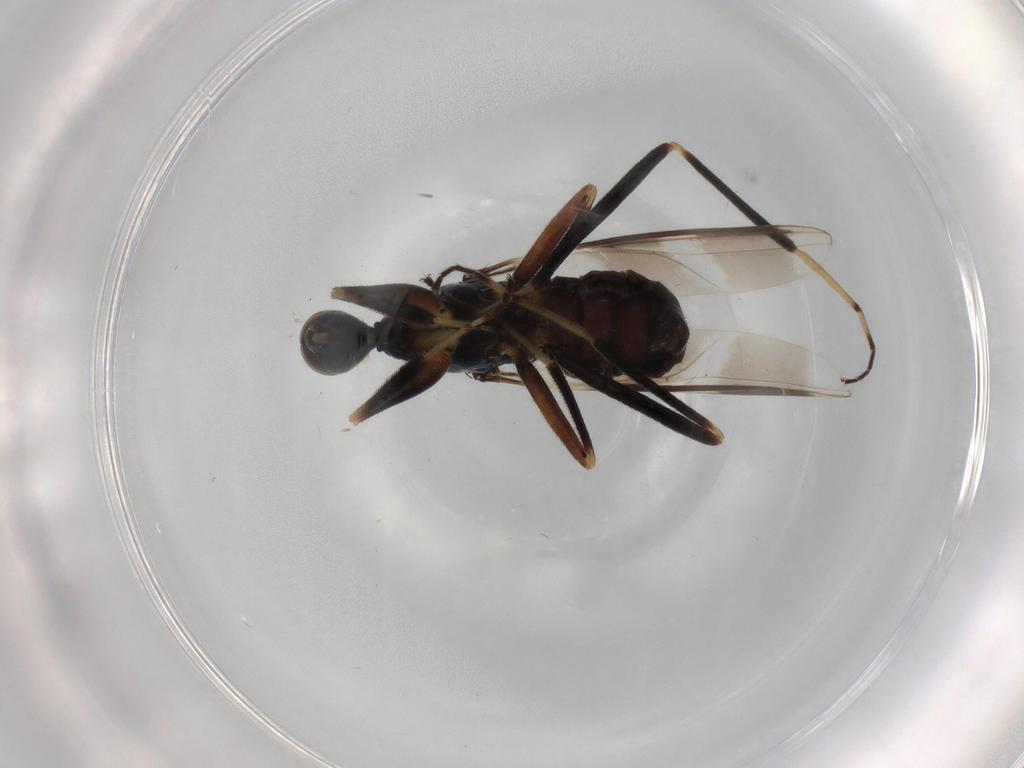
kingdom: Animalia
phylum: Arthropoda
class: Insecta
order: Diptera
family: Hybotidae
